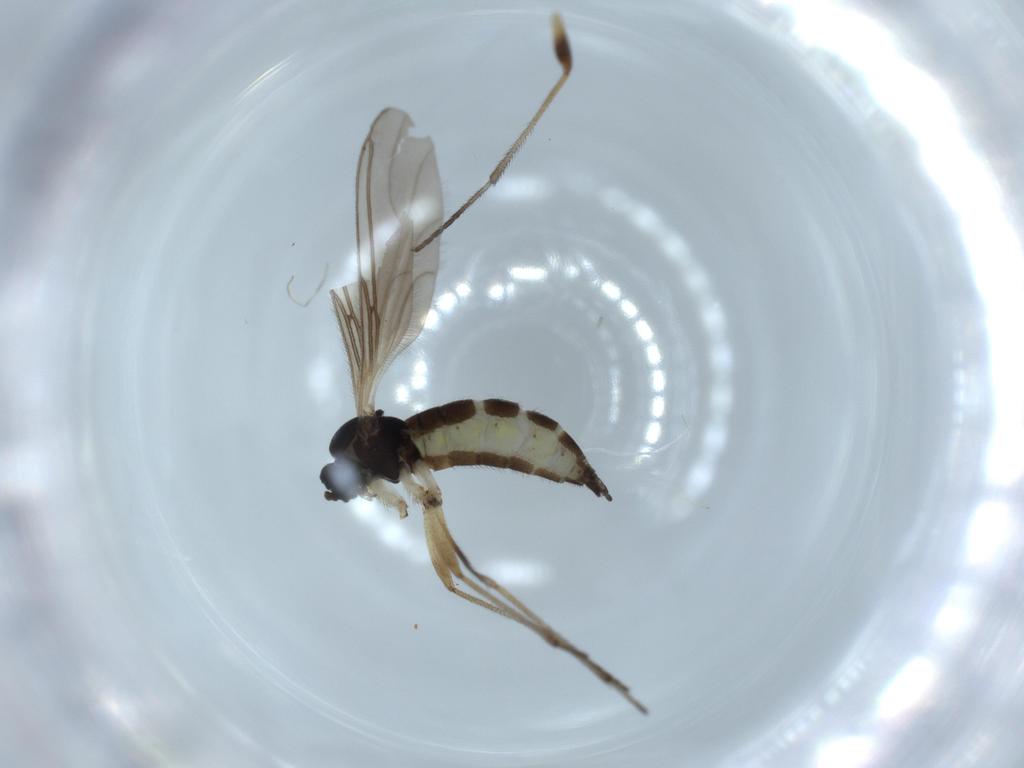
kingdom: Animalia
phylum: Arthropoda
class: Insecta
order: Diptera
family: Sciaridae
